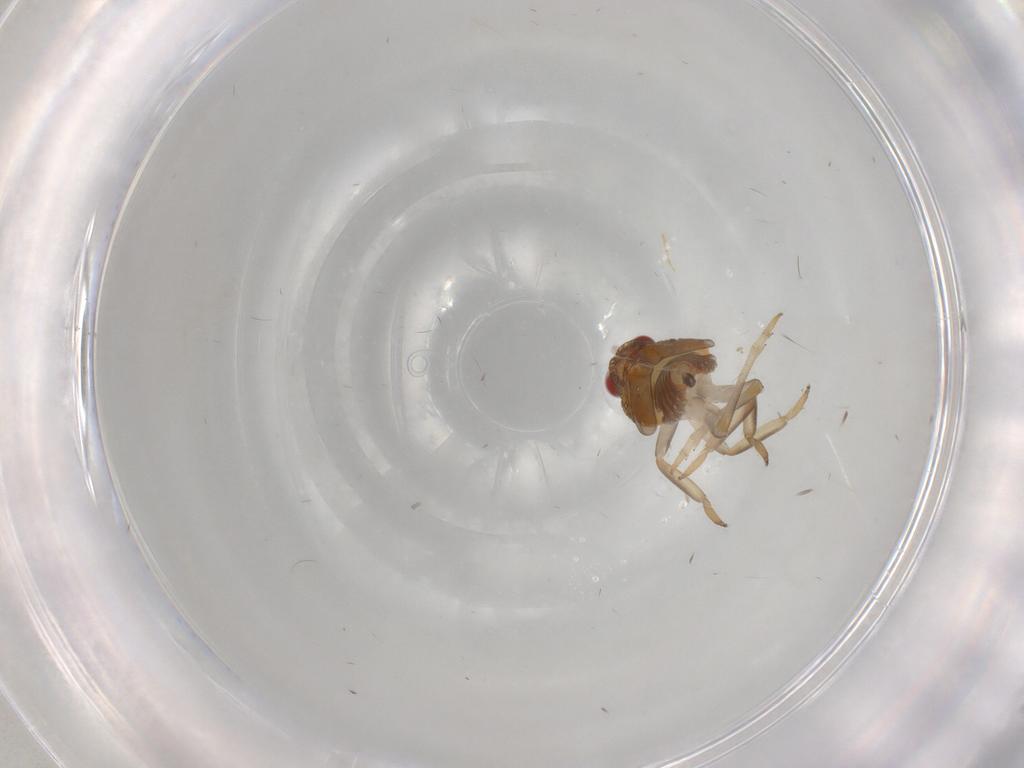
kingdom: Animalia
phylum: Arthropoda
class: Insecta
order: Hemiptera
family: Issidae
